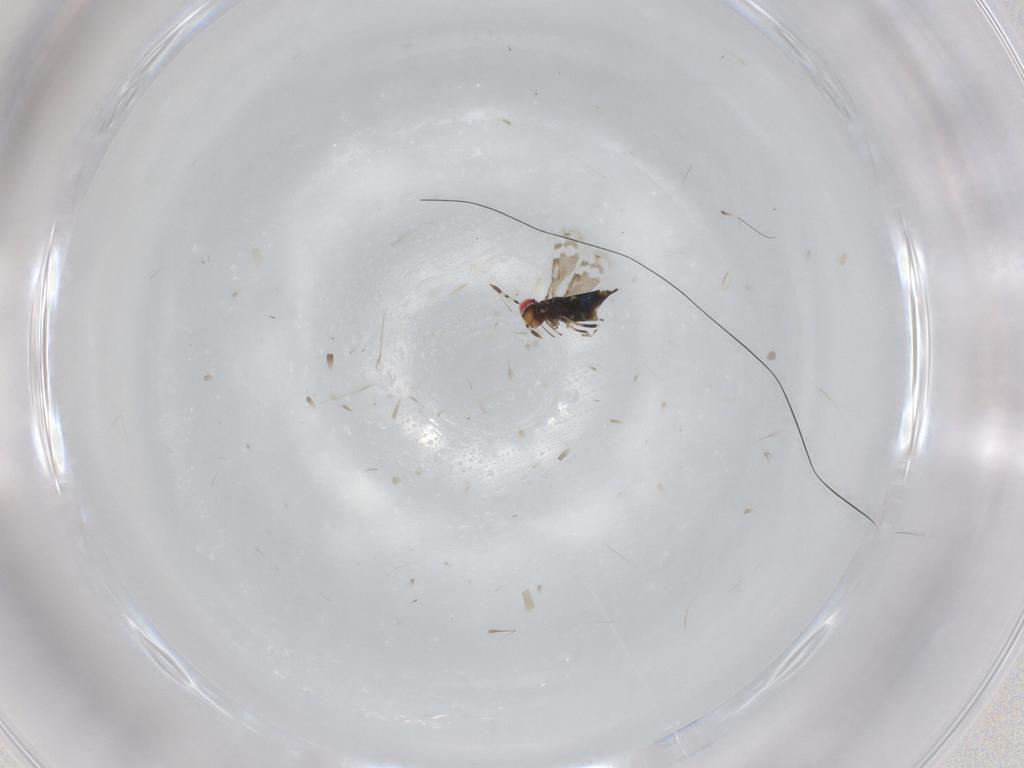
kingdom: Animalia
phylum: Arthropoda
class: Insecta
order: Hymenoptera
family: Azotidae
